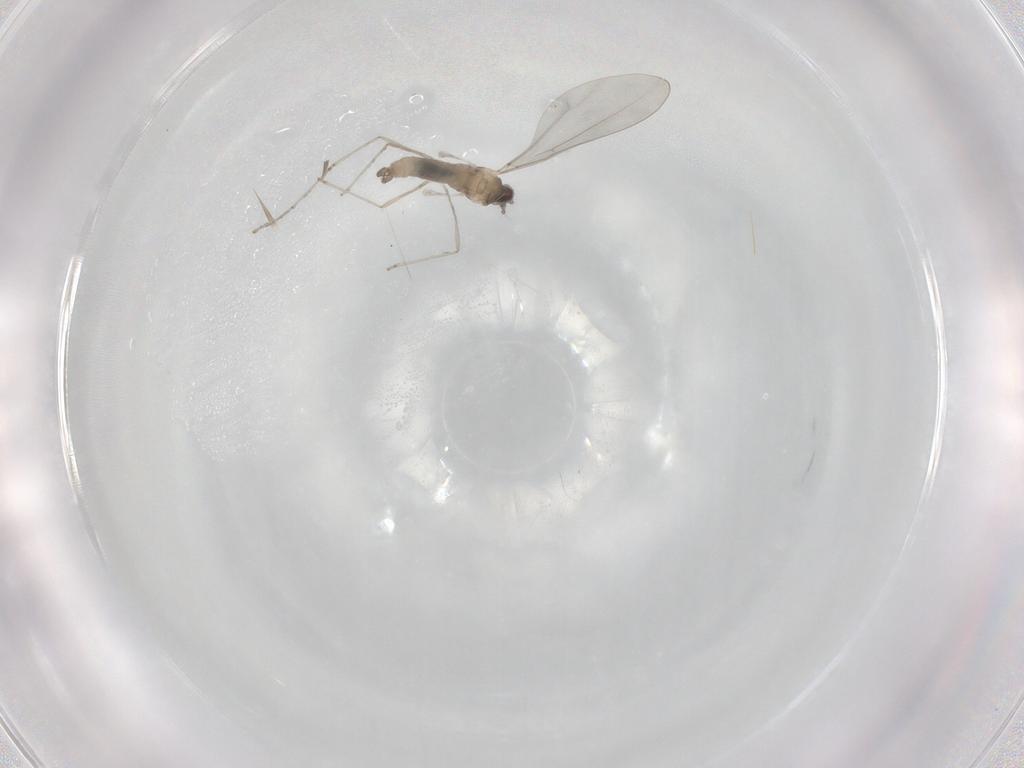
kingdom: Animalia
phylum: Arthropoda
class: Insecta
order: Diptera
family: Cecidomyiidae
